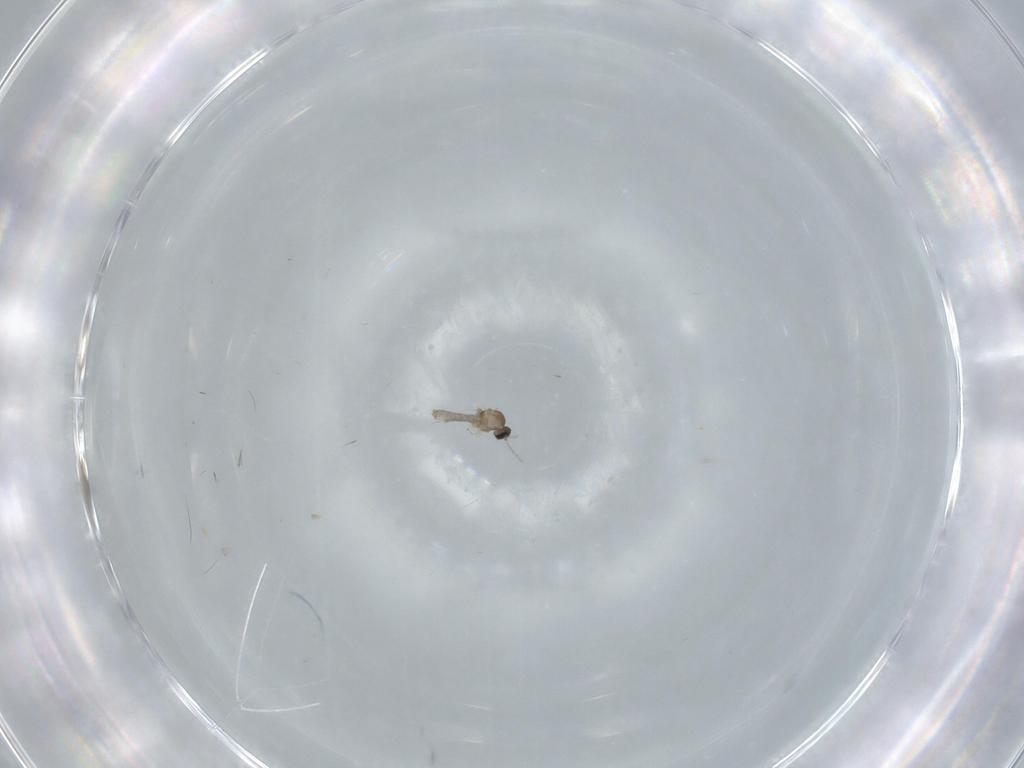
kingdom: Animalia
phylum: Arthropoda
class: Insecta
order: Diptera
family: Cecidomyiidae
